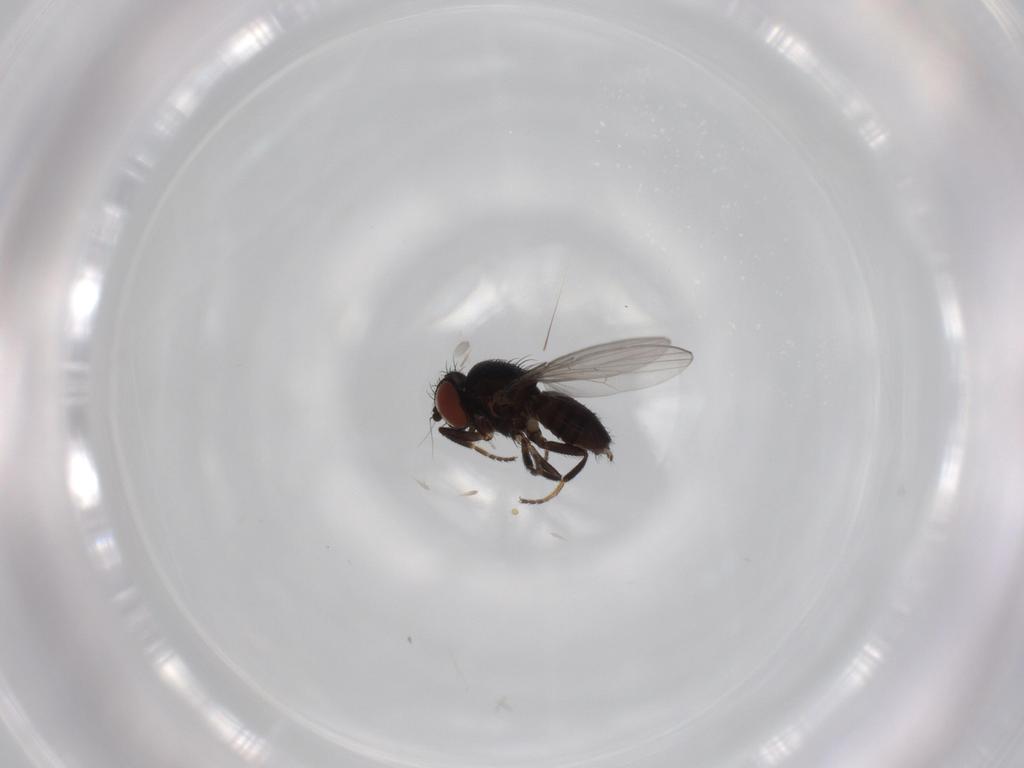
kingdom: Animalia
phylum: Arthropoda
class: Insecta
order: Diptera
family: Milichiidae
